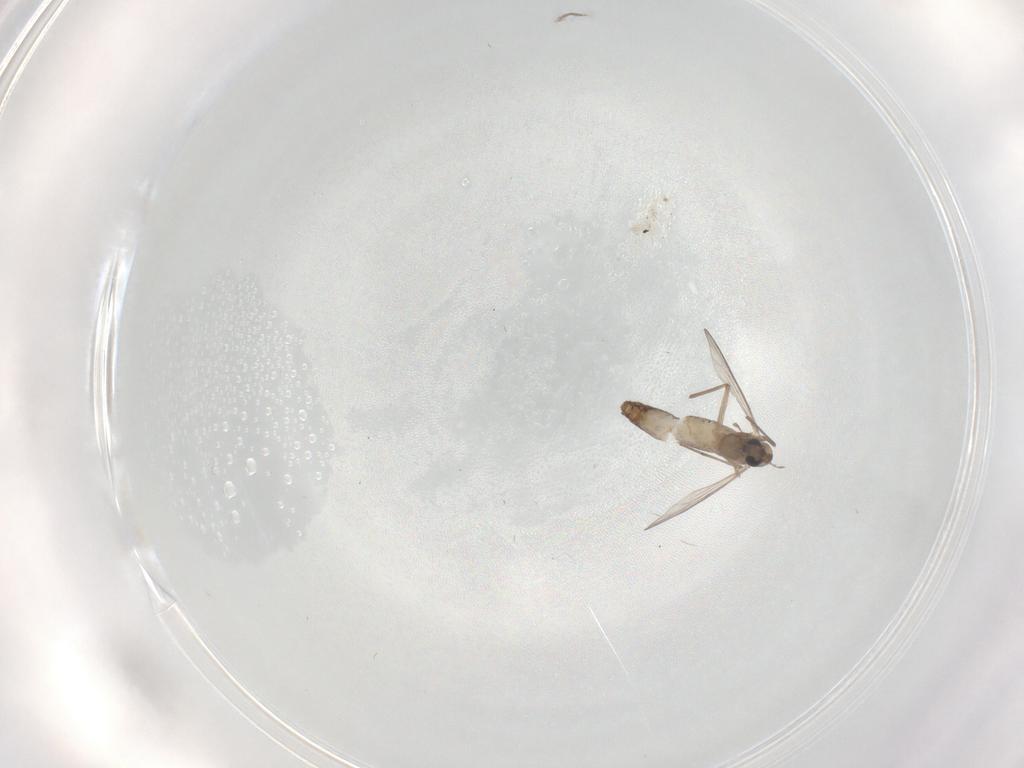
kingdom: Animalia
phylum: Arthropoda
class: Insecta
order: Diptera
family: Chironomidae
